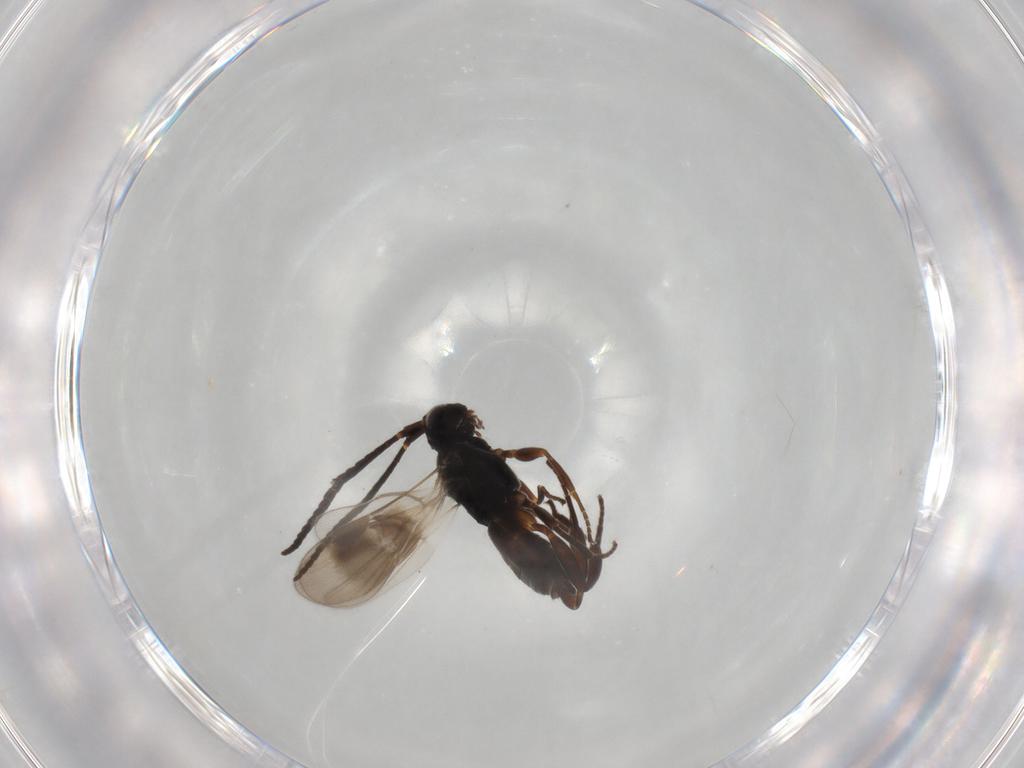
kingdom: Animalia
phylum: Arthropoda
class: Insecta
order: Hymenoptera
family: Braconidae
